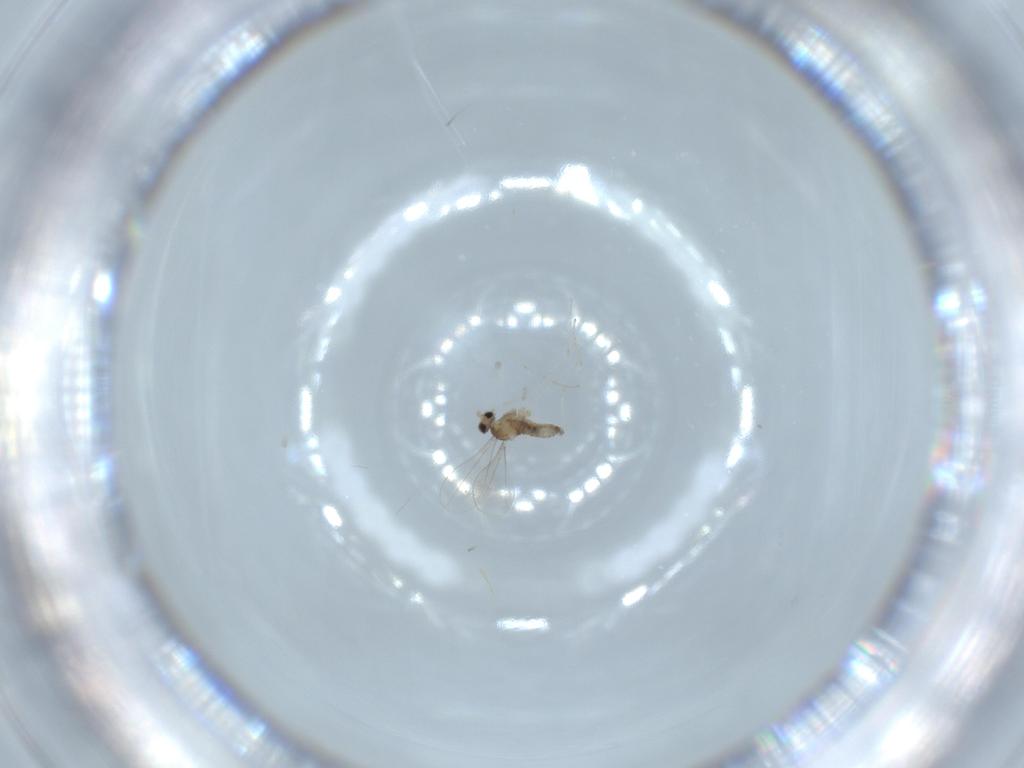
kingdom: Animalia
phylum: Arthropoda
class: Insecta
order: Diptera
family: Cecidomyiidae
